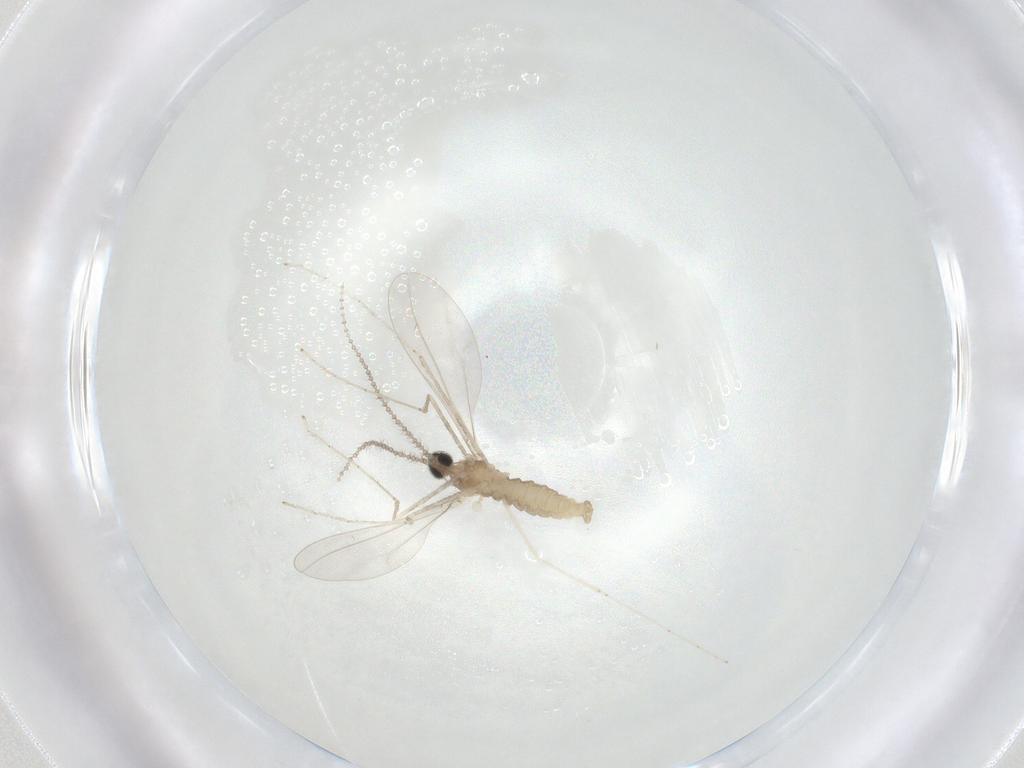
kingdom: Animalia
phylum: Arthropoda
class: Insecta
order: Diptera
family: Cecidomyiidae
